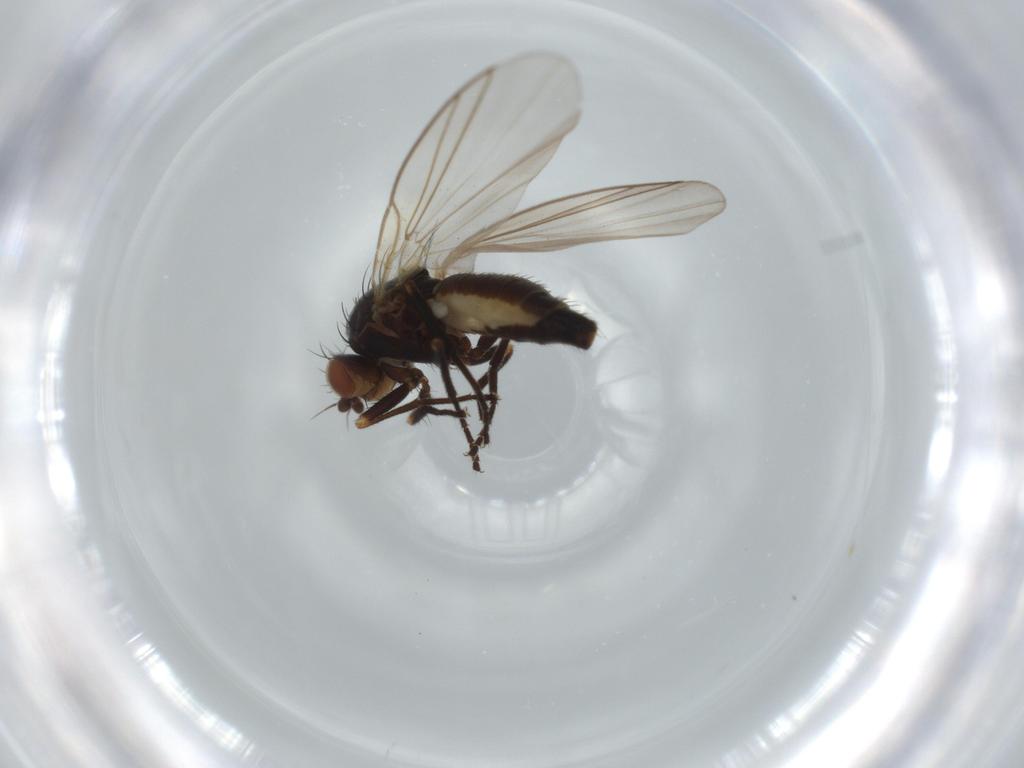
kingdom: Animalia
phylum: Arthropoda
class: Insecta
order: Diptera
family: Agromyzidae
